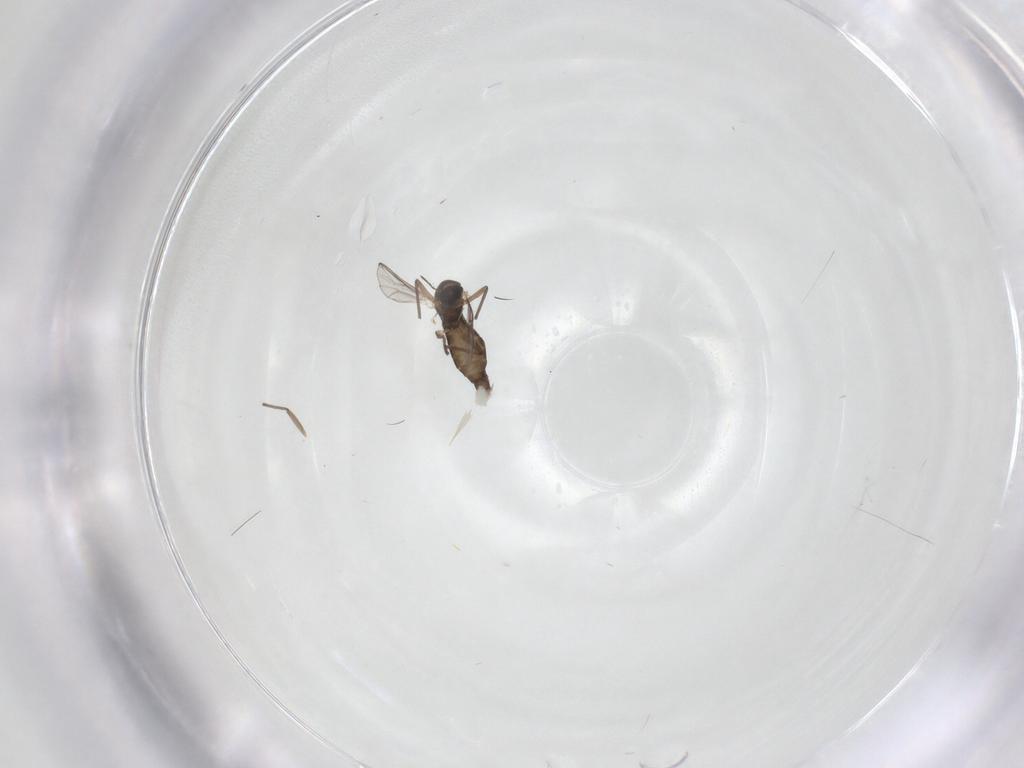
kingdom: Animalia
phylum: Arthropoda
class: Insecta
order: Diptera
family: Chironomidae
